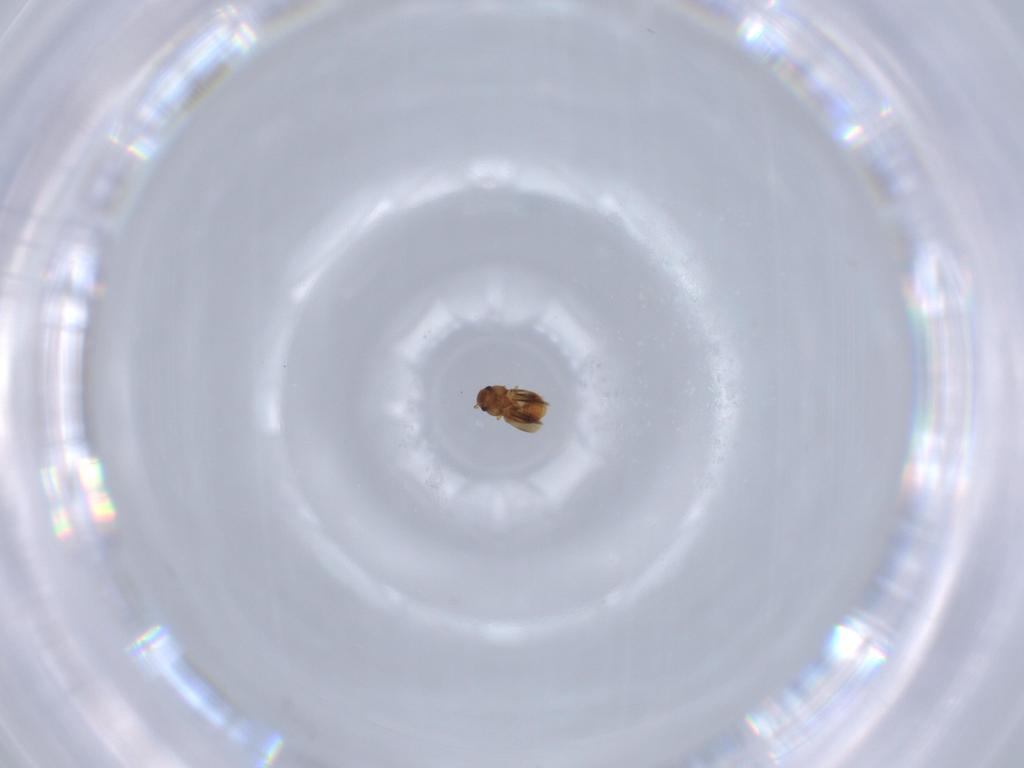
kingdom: Animalia
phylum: Arthropoda
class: Insecta
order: Coleoptera
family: Ptiliidae
